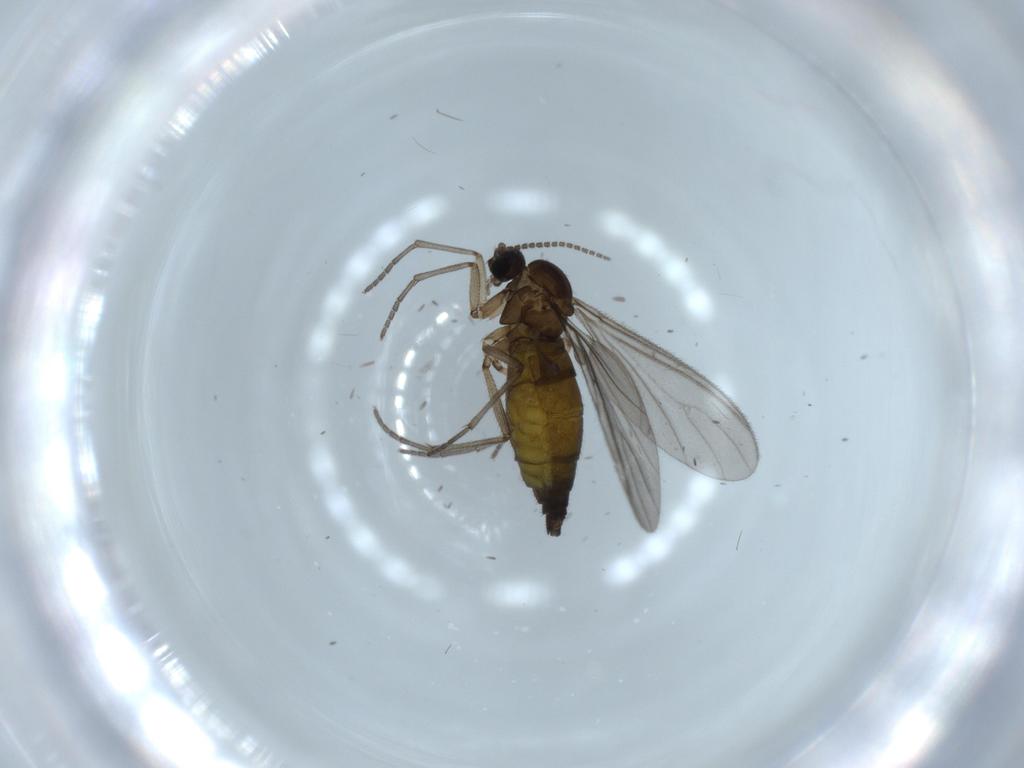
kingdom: Animalia
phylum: Arthropoda
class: Insecta
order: Diptera
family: Sciaridae
